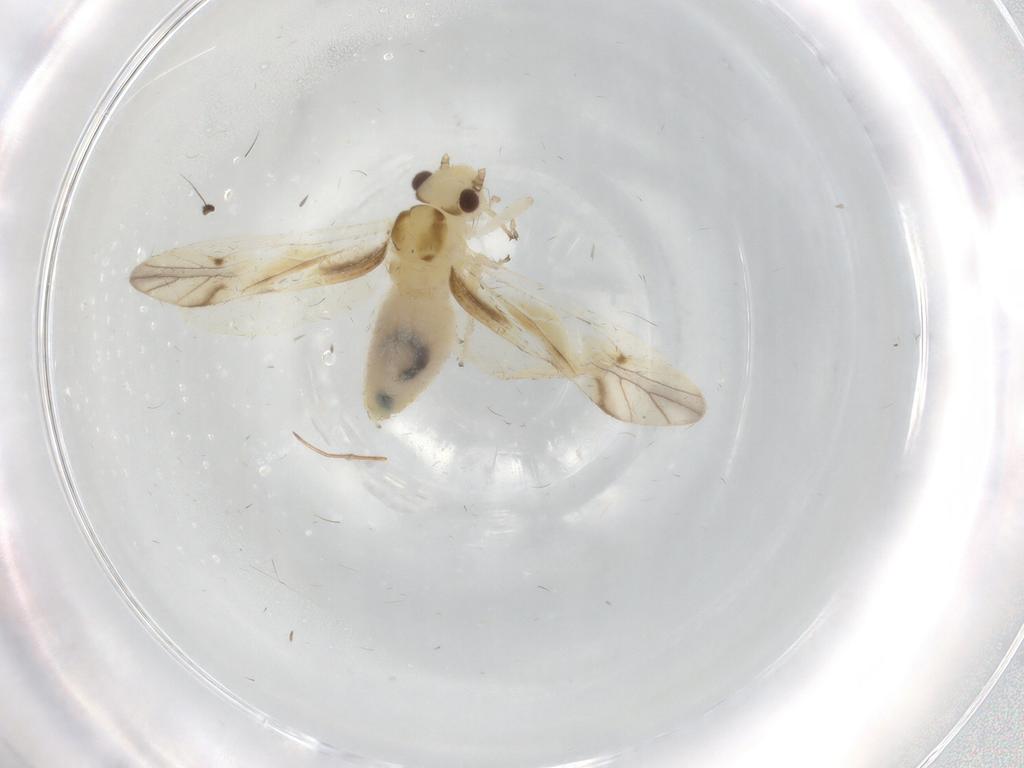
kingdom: Animalia
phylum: Arthropoda
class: Insecta
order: Psocodea
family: Caeciliusidae
